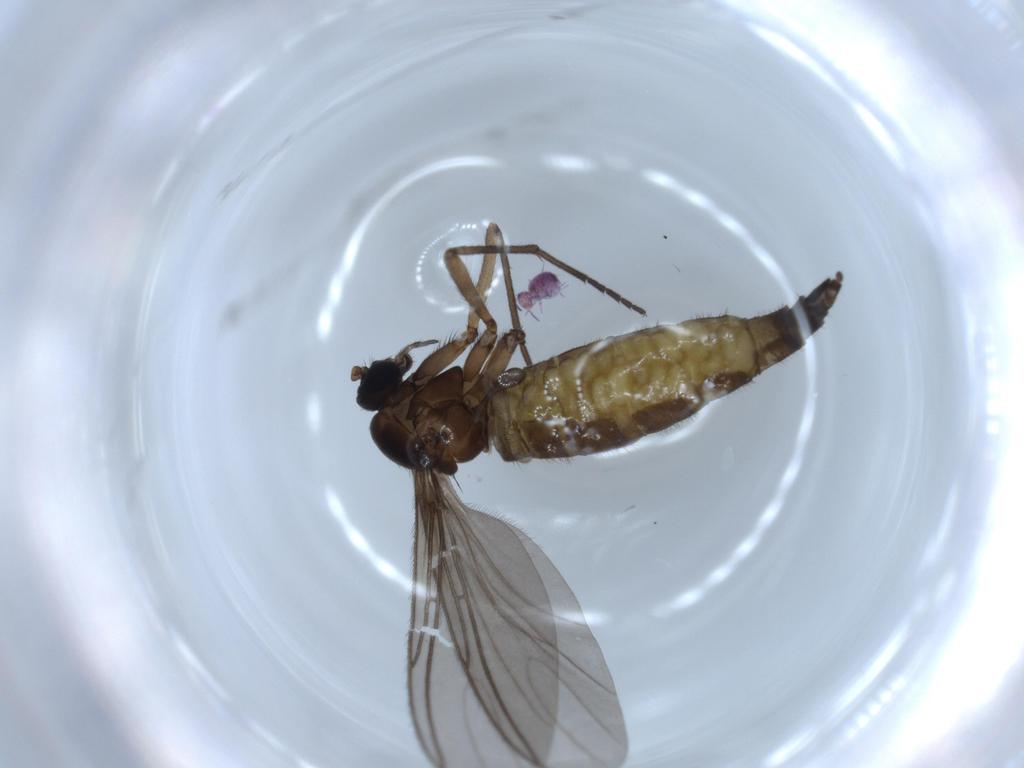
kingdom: Animalia
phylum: Arthropoda
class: Insecta
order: Diptera
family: Sciaridae
